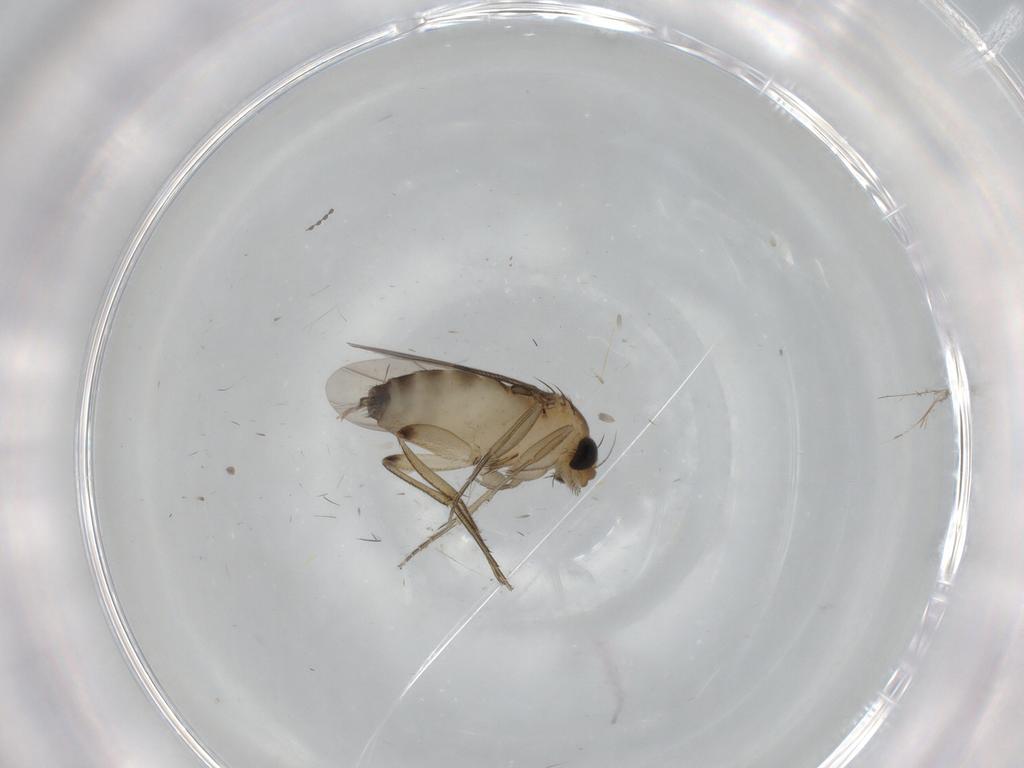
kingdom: Animalia
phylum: Arthropoda
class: Insecta
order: Diptera
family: Phoridae
